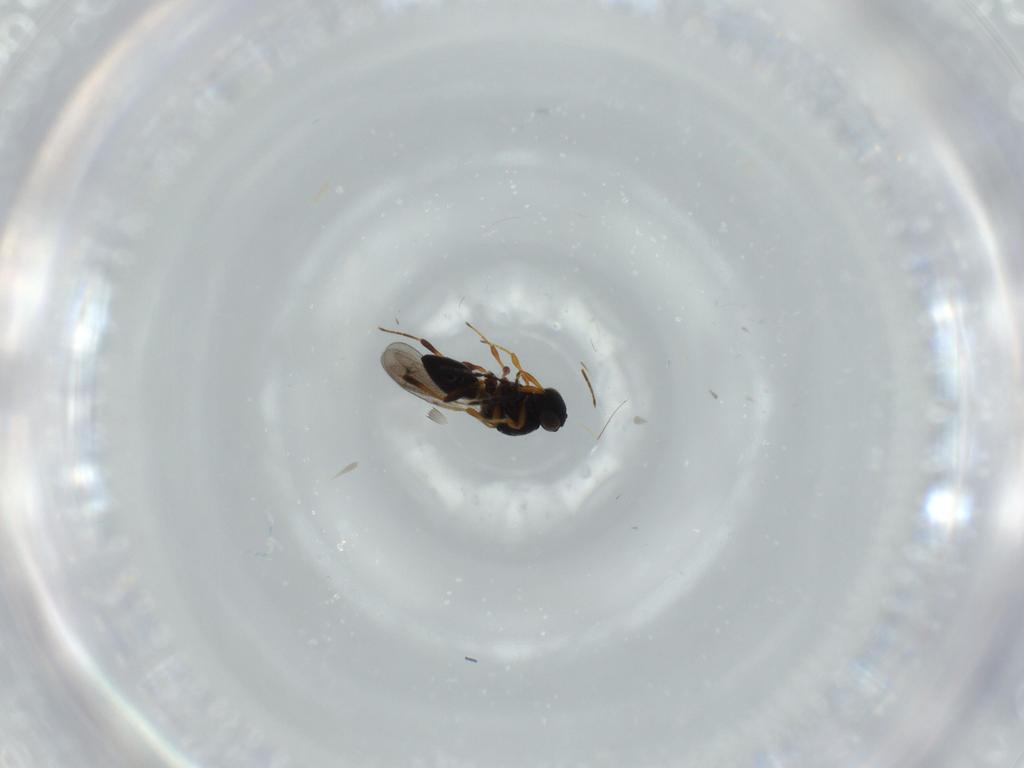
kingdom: Animalia
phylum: Arthropoda
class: Insecta
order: Hymenoptera
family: Platygastridae
